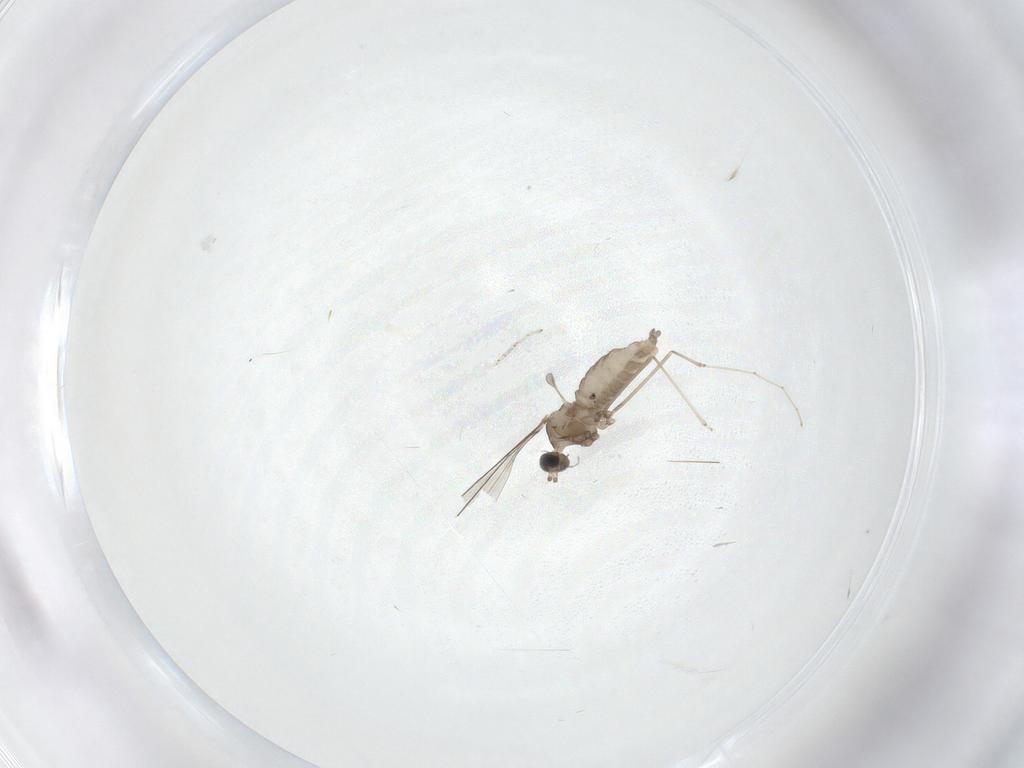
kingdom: Animalia
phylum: Arthropoda
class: Insecta
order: Diptera
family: Cecidomyiidae
